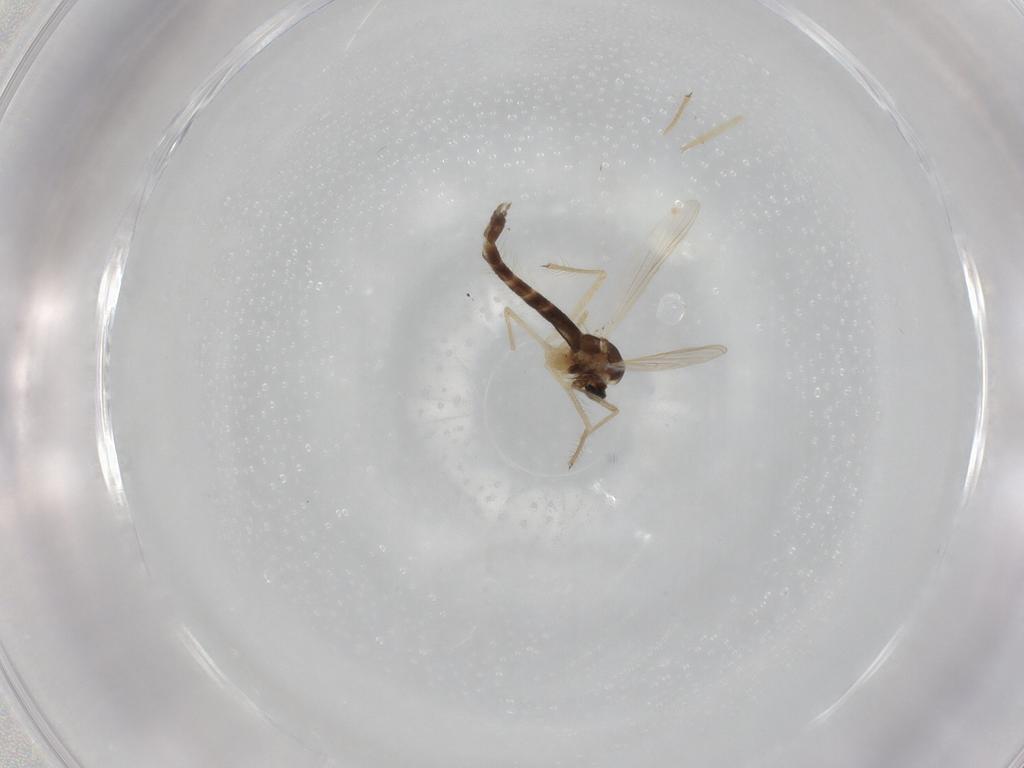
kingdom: Animalia
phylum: Arthropoda
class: Insecta
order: Diptera
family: Chironomidae
